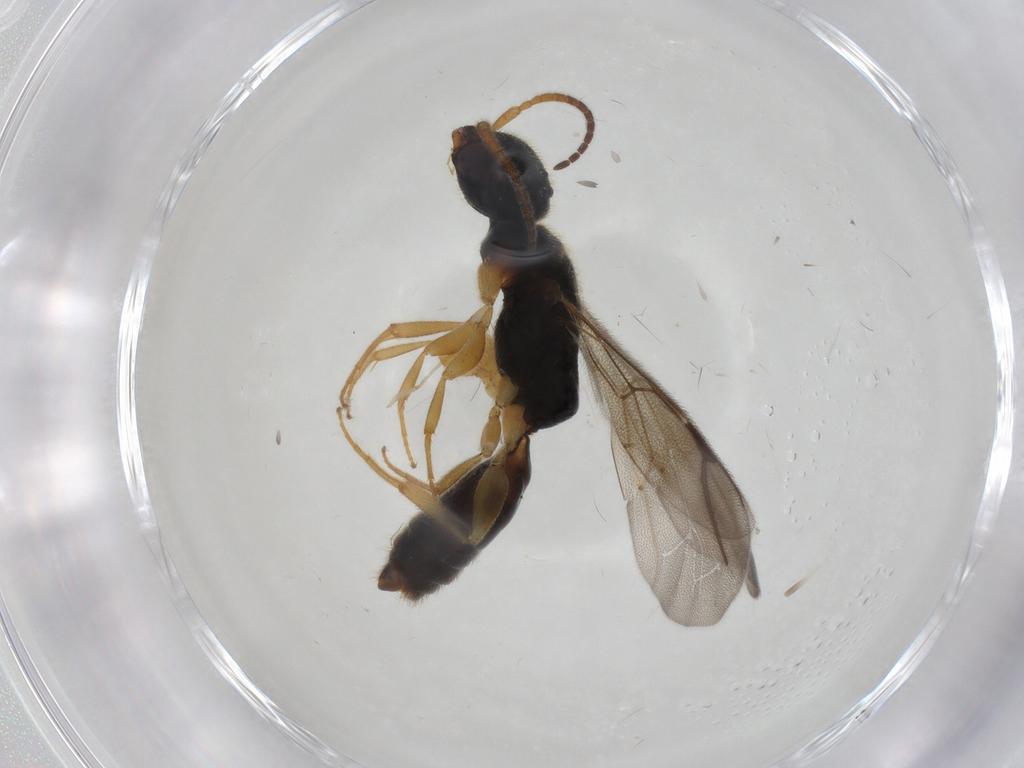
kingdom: Animalia
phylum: Arthropoda
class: Insecta
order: Hymenoptera
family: Bethylidae
